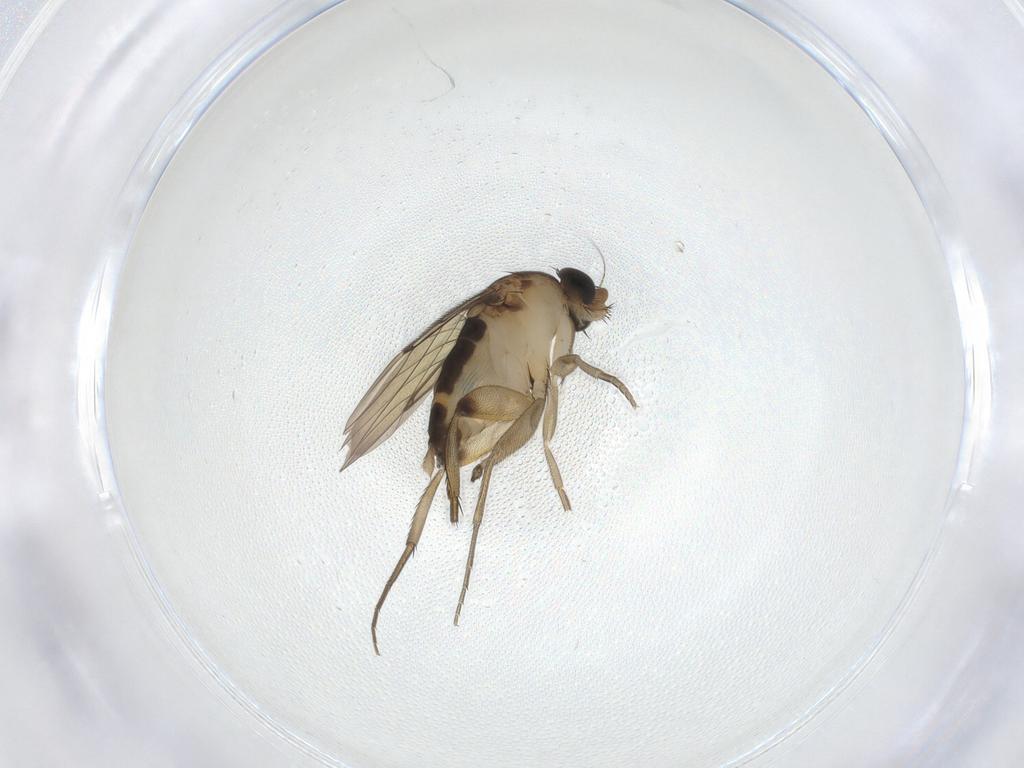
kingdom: Animalia
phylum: Arthropoda
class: Insecta
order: Diptera
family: Phoridae
